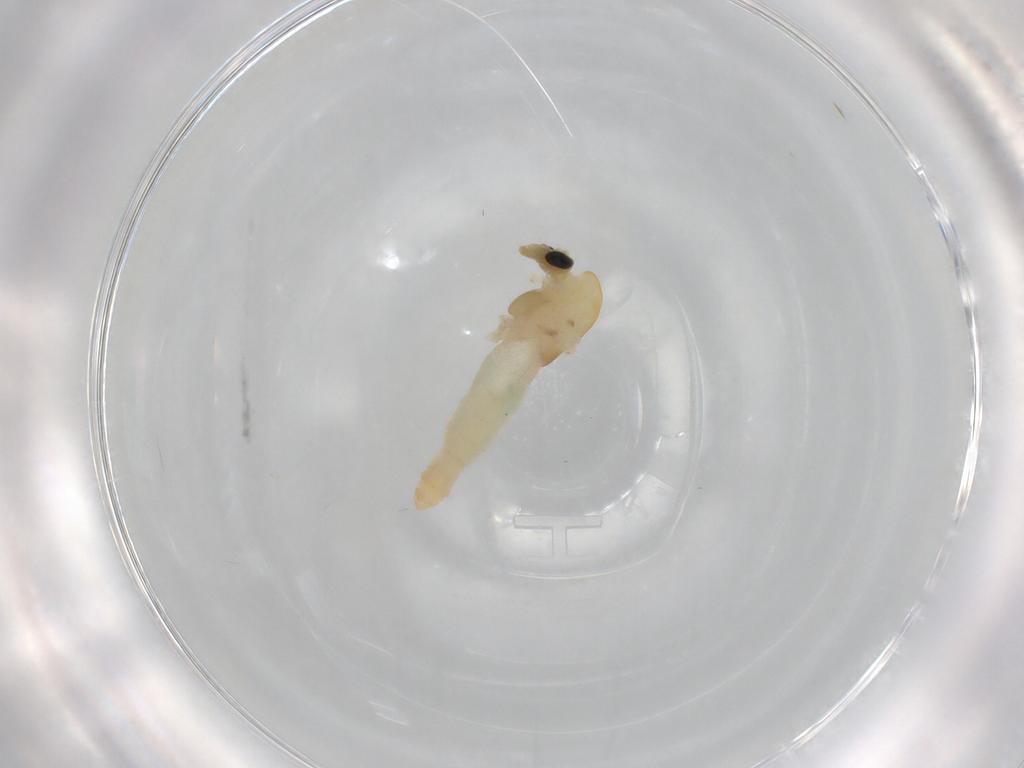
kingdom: Animalia
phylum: Arthropoda
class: Insecta
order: Diptera
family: Chironomidae
